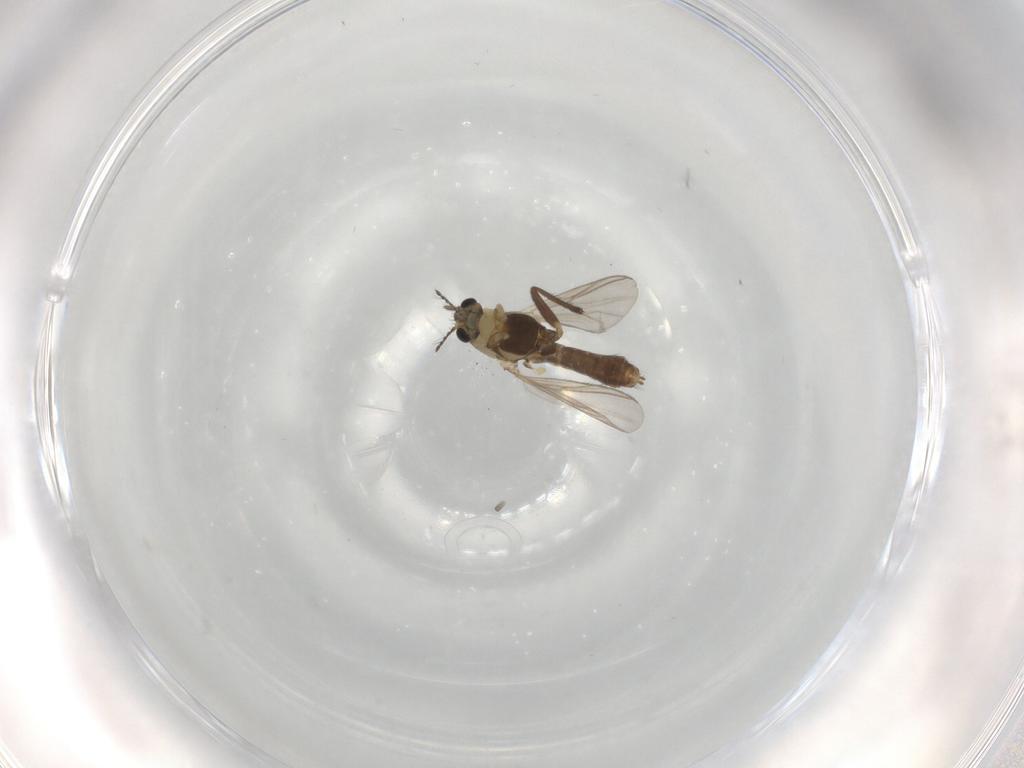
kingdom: Animalia
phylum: Arthropoda
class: Insecta
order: Diptera
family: Chironomidae
